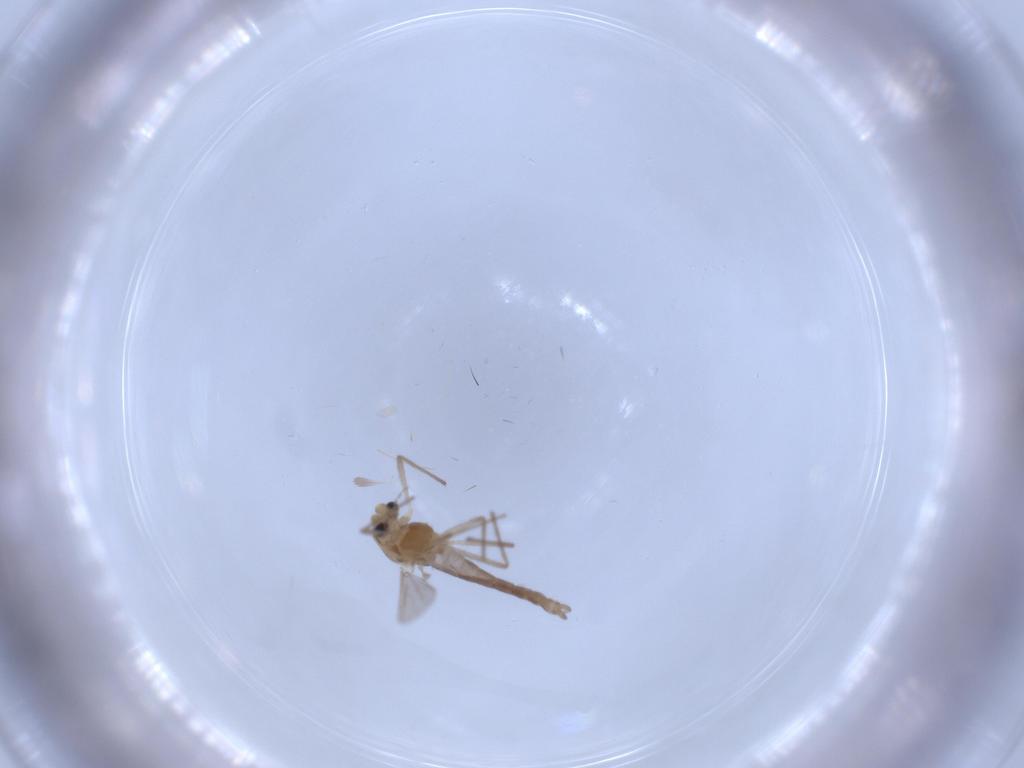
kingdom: Animalia
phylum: Arthropoda
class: Insecta
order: Diptera
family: Chironomidae
